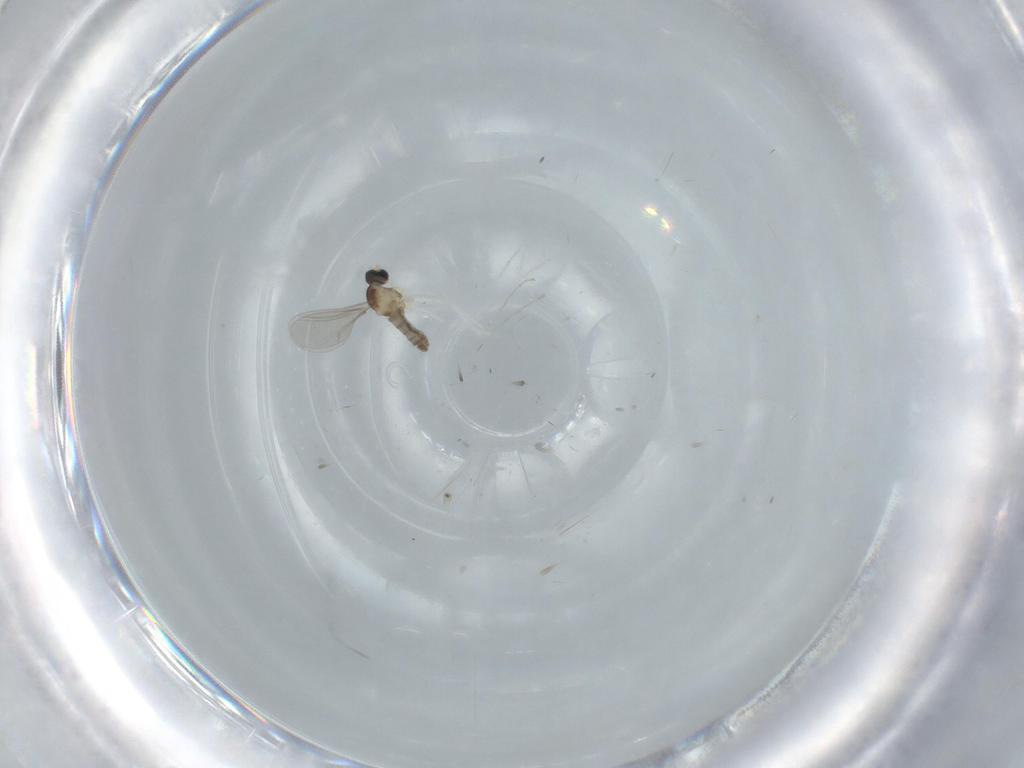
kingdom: Animalia
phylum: Arthropoda
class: Insecta
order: Diptera
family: Cecidomyiidae
